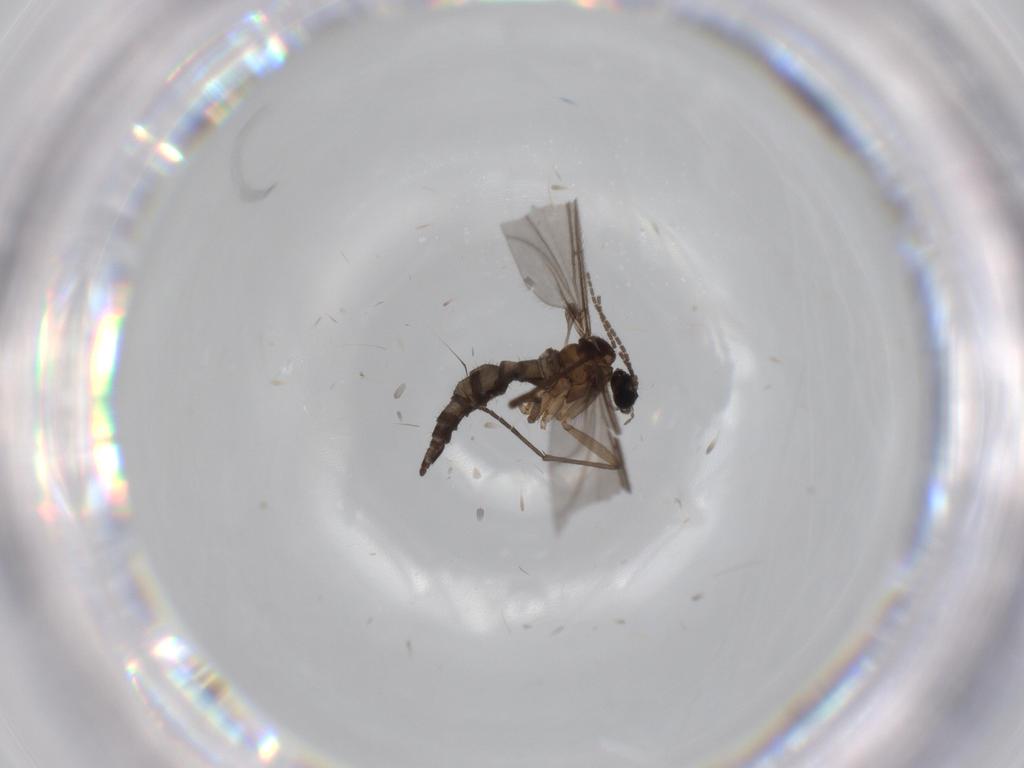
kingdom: Animalia
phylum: Arthropoda
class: Insecta
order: Diptera
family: Sciaridae
